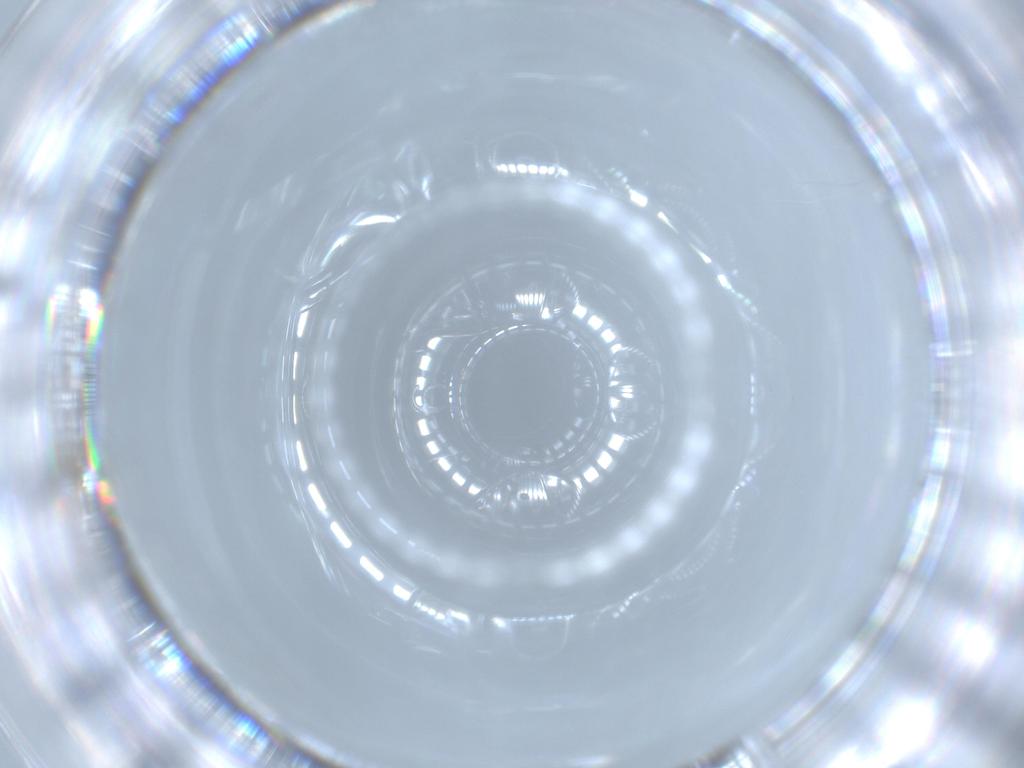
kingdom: Animalia
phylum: Arthropoda
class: Insecta
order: Diptera
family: Cecidomyiidae
